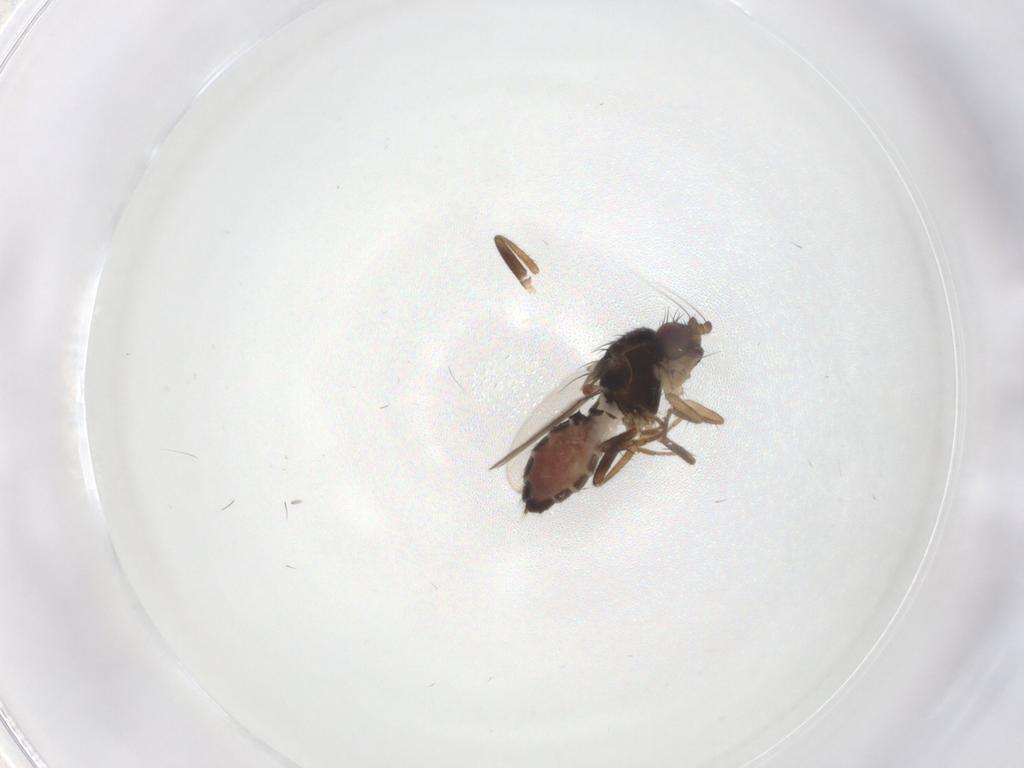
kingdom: Animalia
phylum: Arthropoda
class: Insecta
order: Diptera
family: Sphaeroceridae
